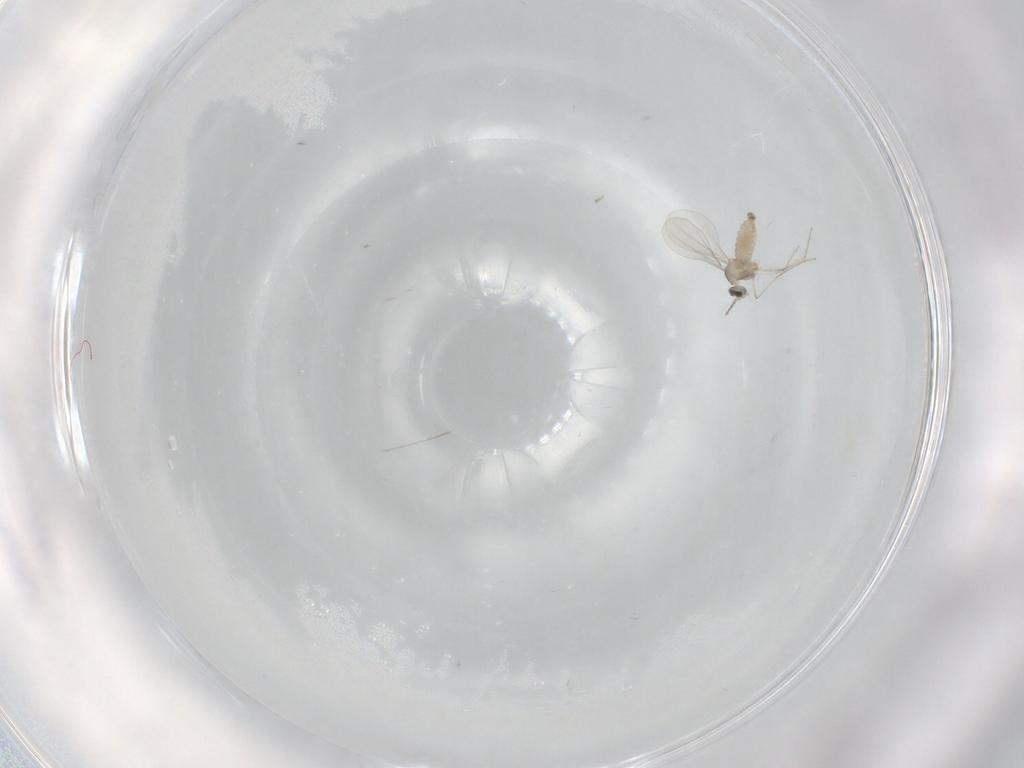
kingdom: Animalia
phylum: Arthropoda
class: Insecta
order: Diptera
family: Cecidomyiidae
